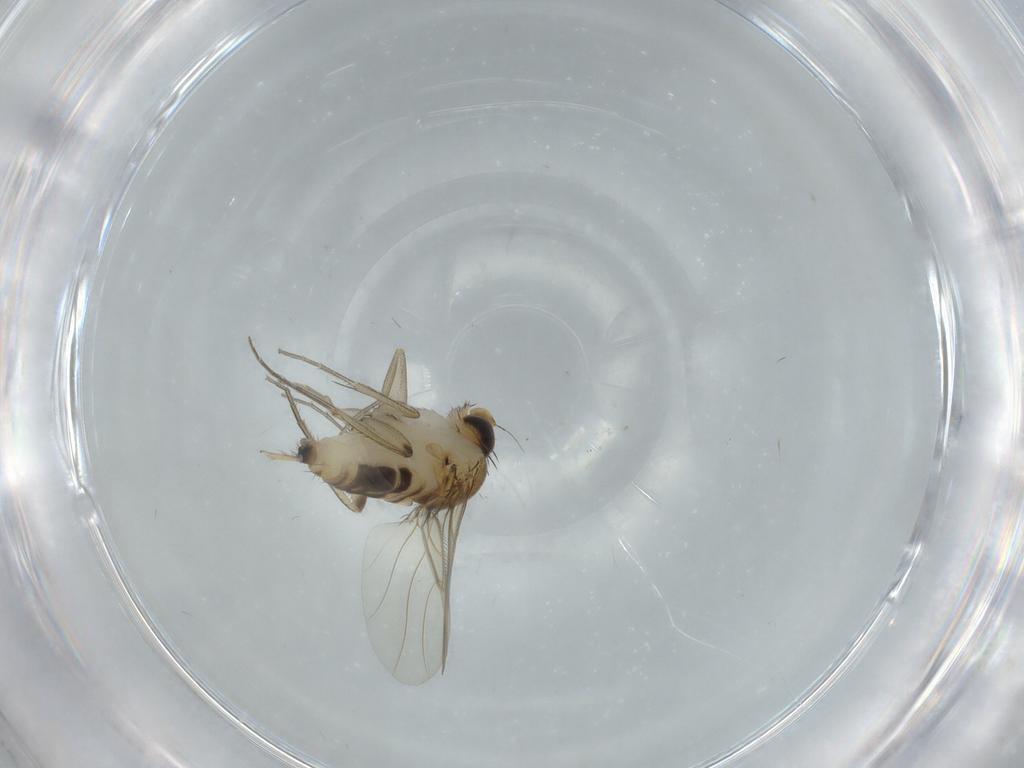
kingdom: Animalia
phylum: Arthropoda
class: Insecta
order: Diptera
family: Phoridae
